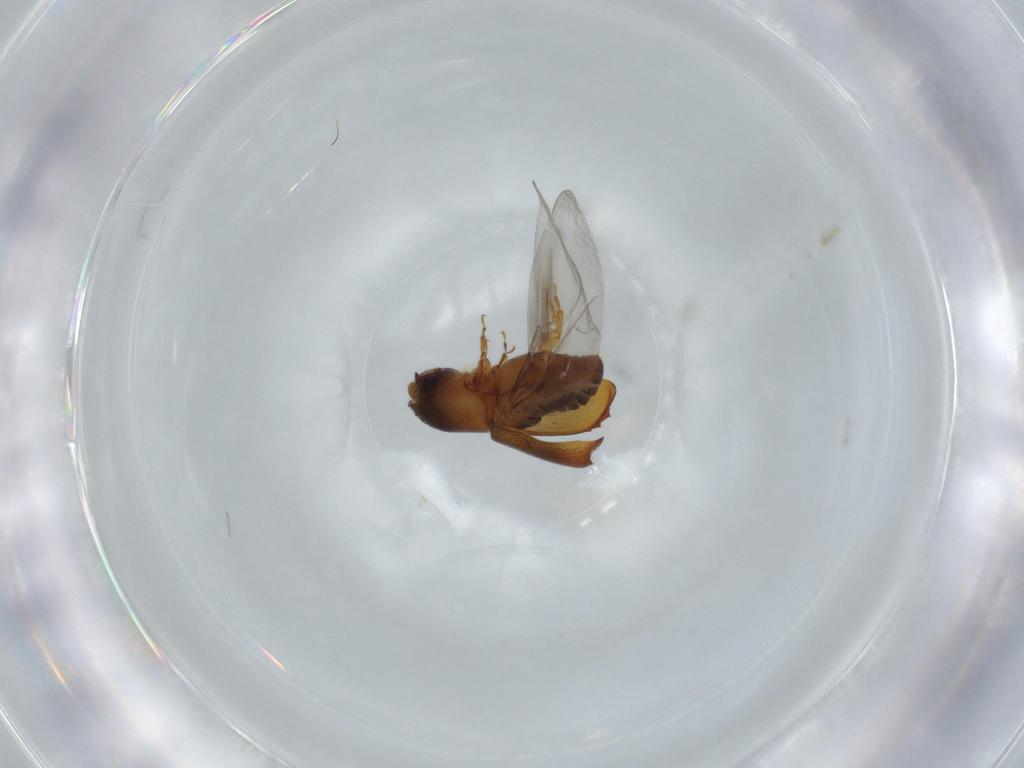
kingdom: Animalia
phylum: Arthropoda
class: Insecta
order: Coleoptera
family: Curculionidae
